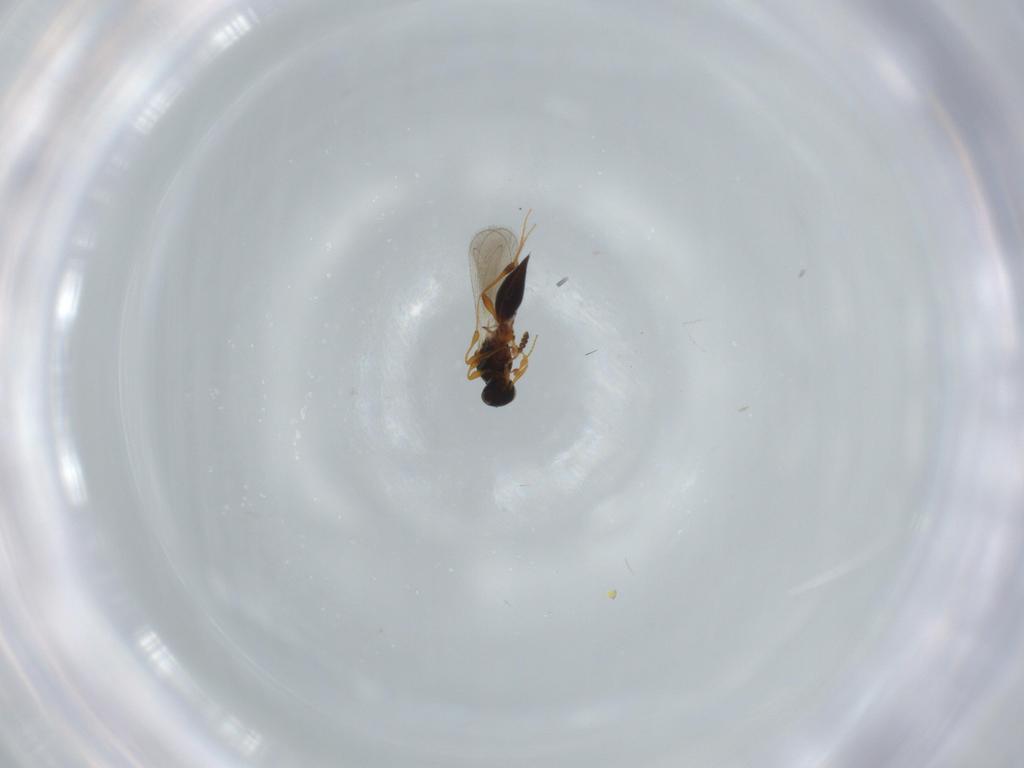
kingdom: Animalia
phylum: Arthropoda
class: Insecta
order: Hymenoptera
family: Platygastridae
